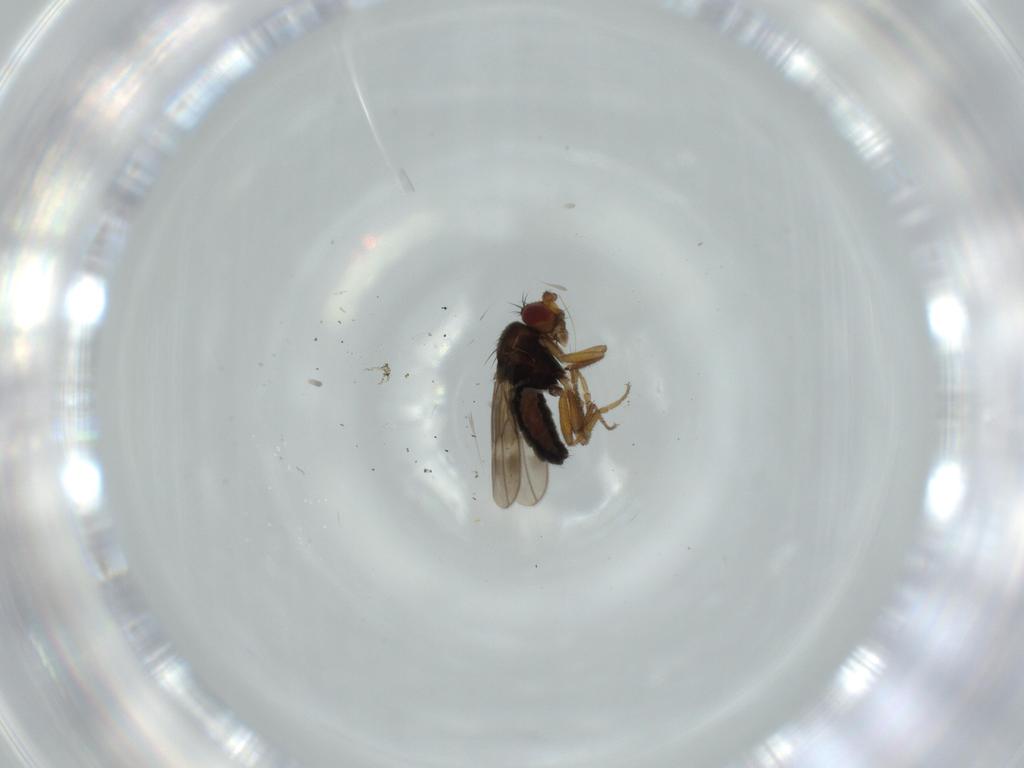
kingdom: Animalia
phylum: Arthropoda
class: Insecta
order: Diptera
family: Sphaeroceridae
